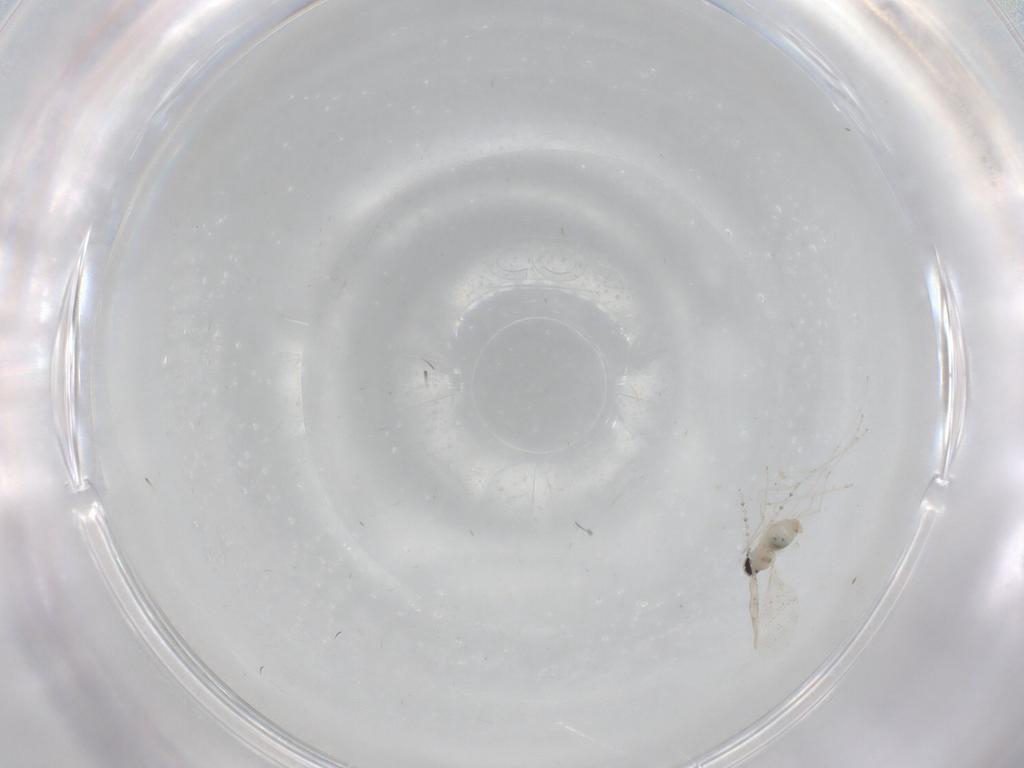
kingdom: Animalia
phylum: Arthropoda
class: Insecta
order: Diptera
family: Cecidomyiidae
